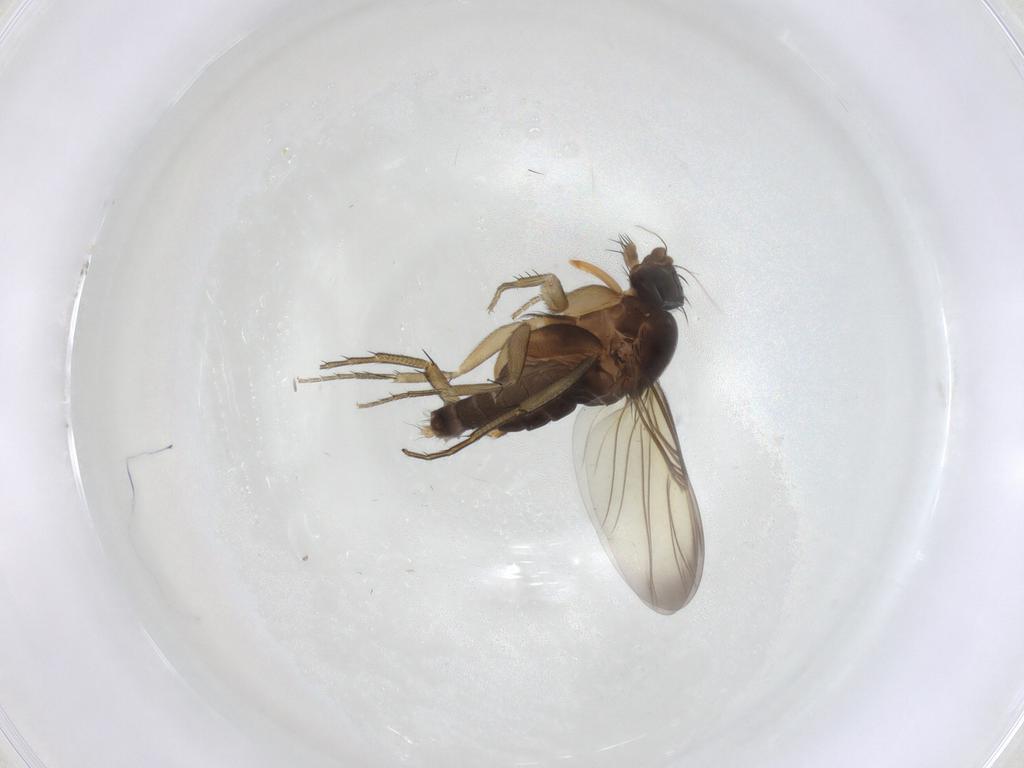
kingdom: Animalia
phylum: Arthropoda
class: Insecta
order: Diptera
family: Phoridae
